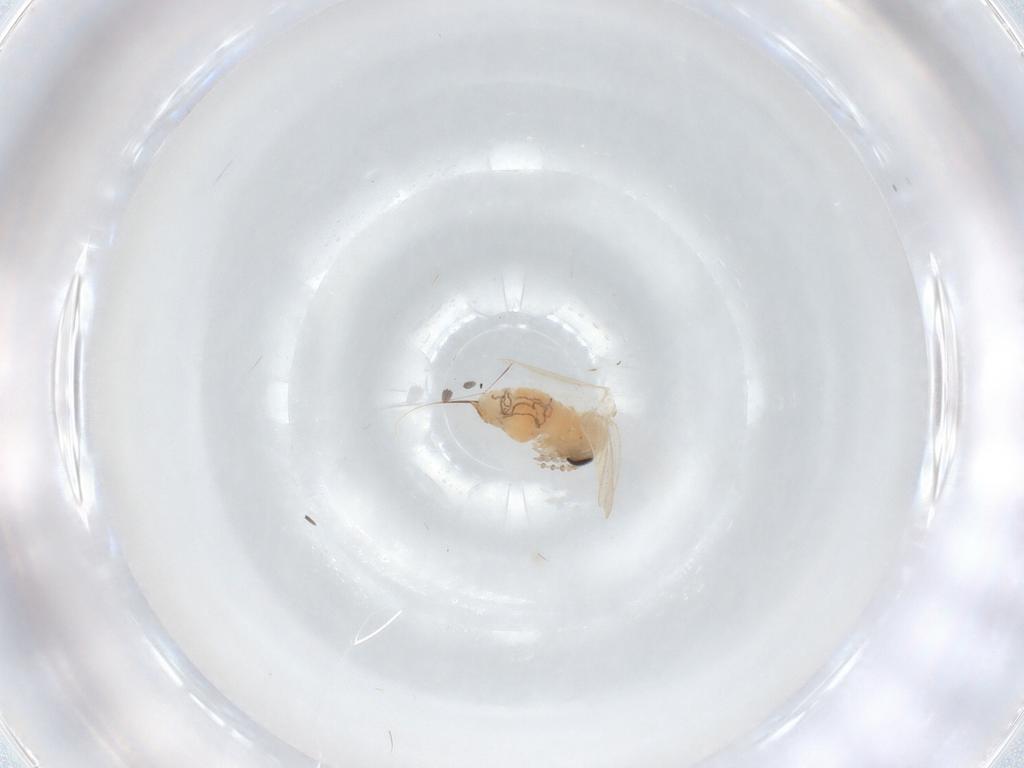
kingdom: Animalia
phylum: Arthropoda
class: Insecta
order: Diptera
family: Psychodidae
